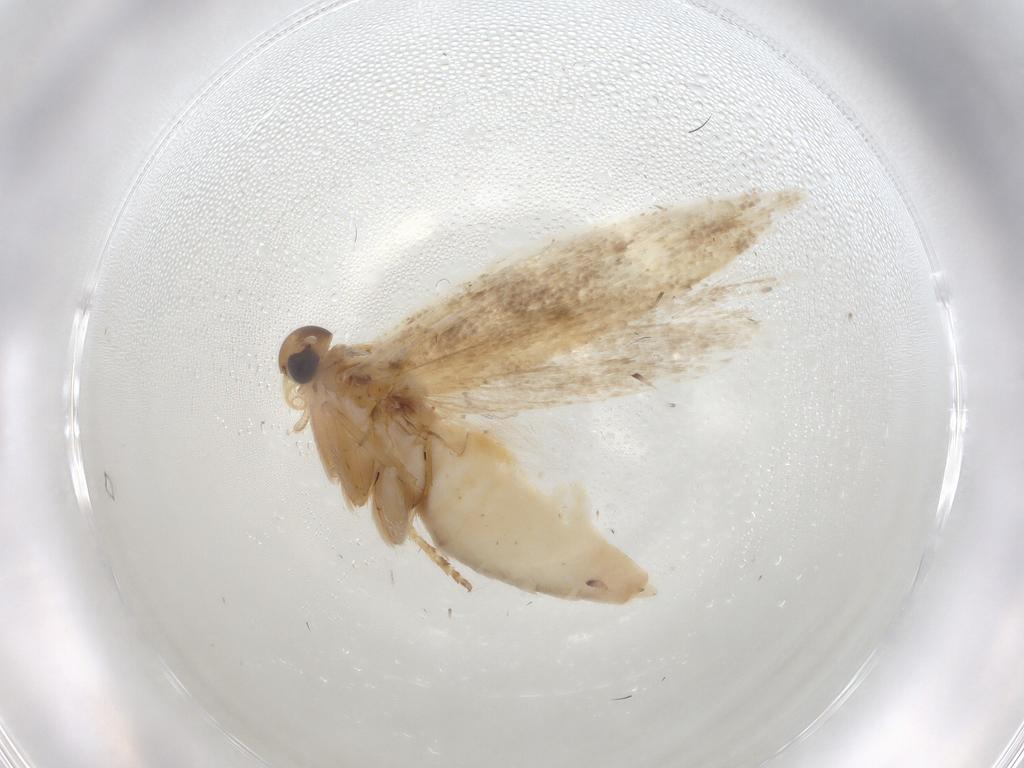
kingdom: Animalia
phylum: Arthropoda
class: Insecta
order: Lepidoptera
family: Gelechiidae
